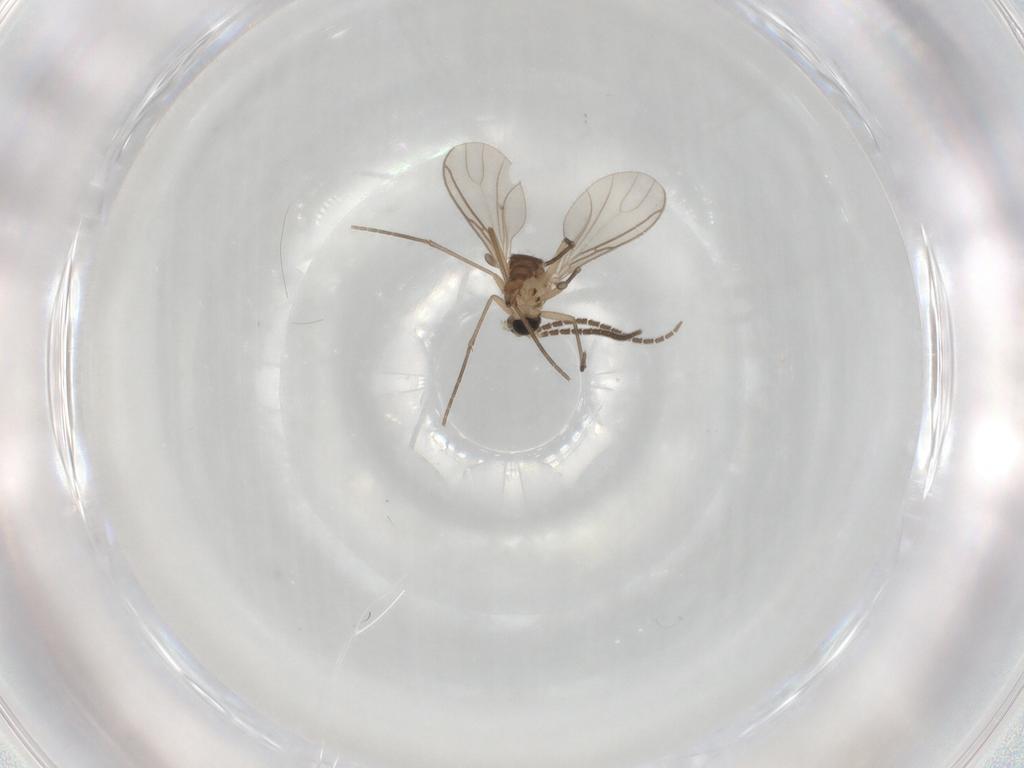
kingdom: Animalia
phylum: Arthropoda
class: Insecta
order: Diptera
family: Sciaridae
